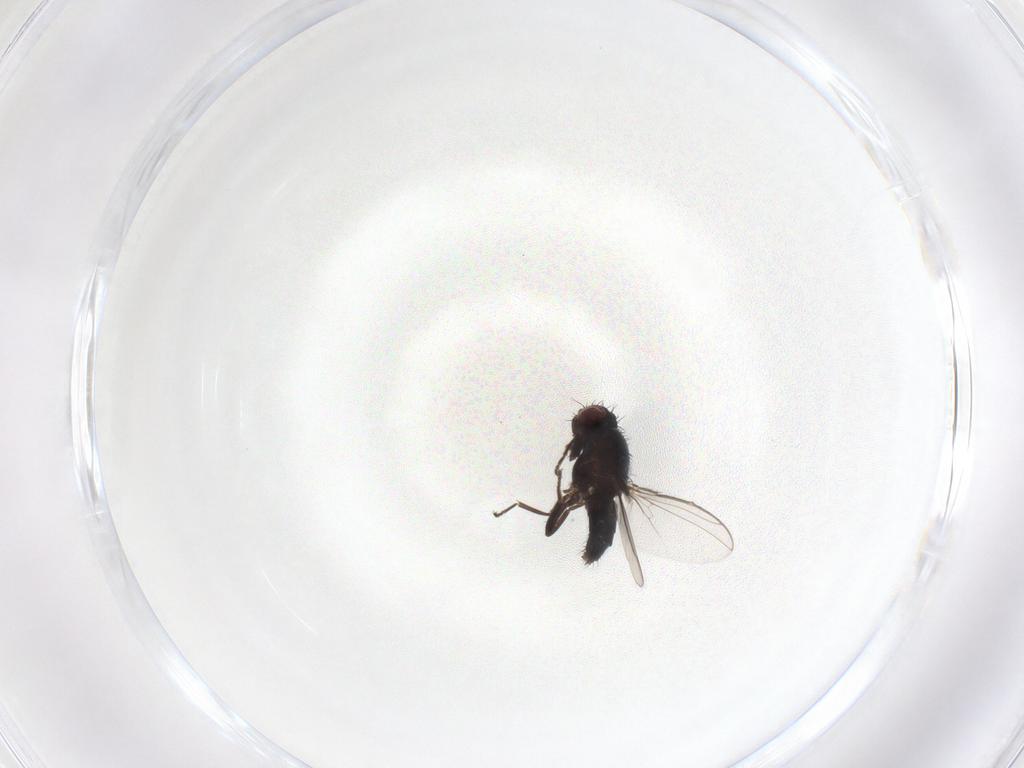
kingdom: Animalia
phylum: Arthropoda
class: Insecta
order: Diptera
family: Carnidae
